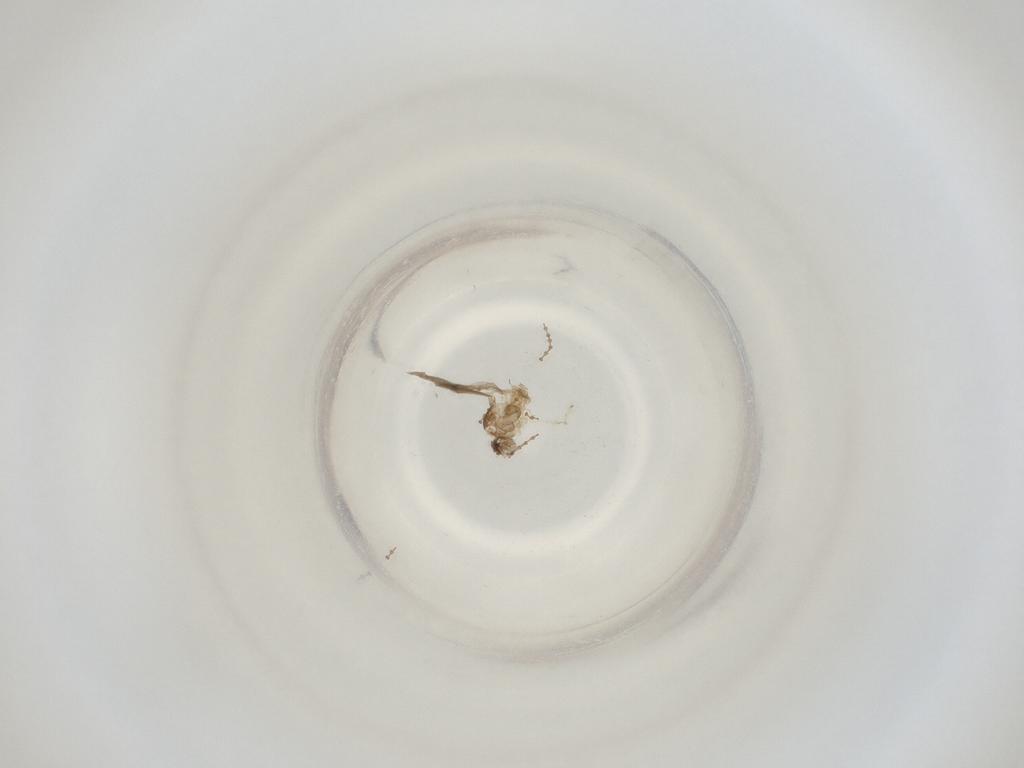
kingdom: Animalia
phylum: Arthropoda
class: Insecta
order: Diptera
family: Cecidomyiidae
